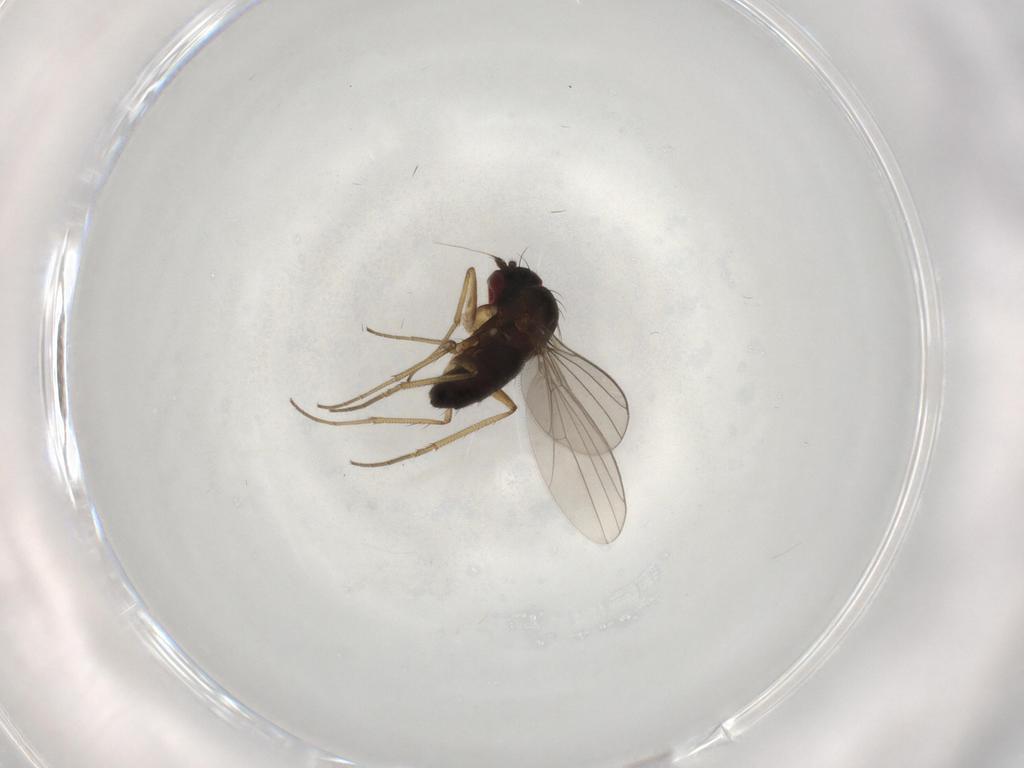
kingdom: Animalia
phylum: Arthropoda
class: Insecta
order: Diptera
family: Dolichopodidae
